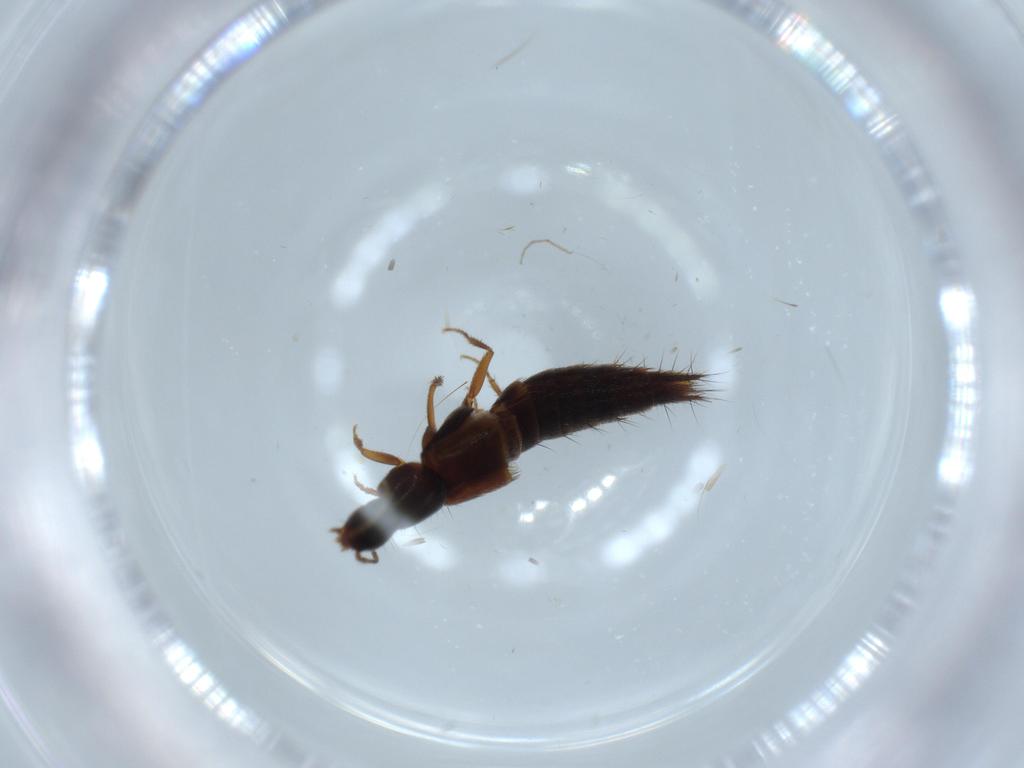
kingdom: Animalia
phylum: Arthropoda
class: Insecta
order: Coleoptera
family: Staphylinidae
